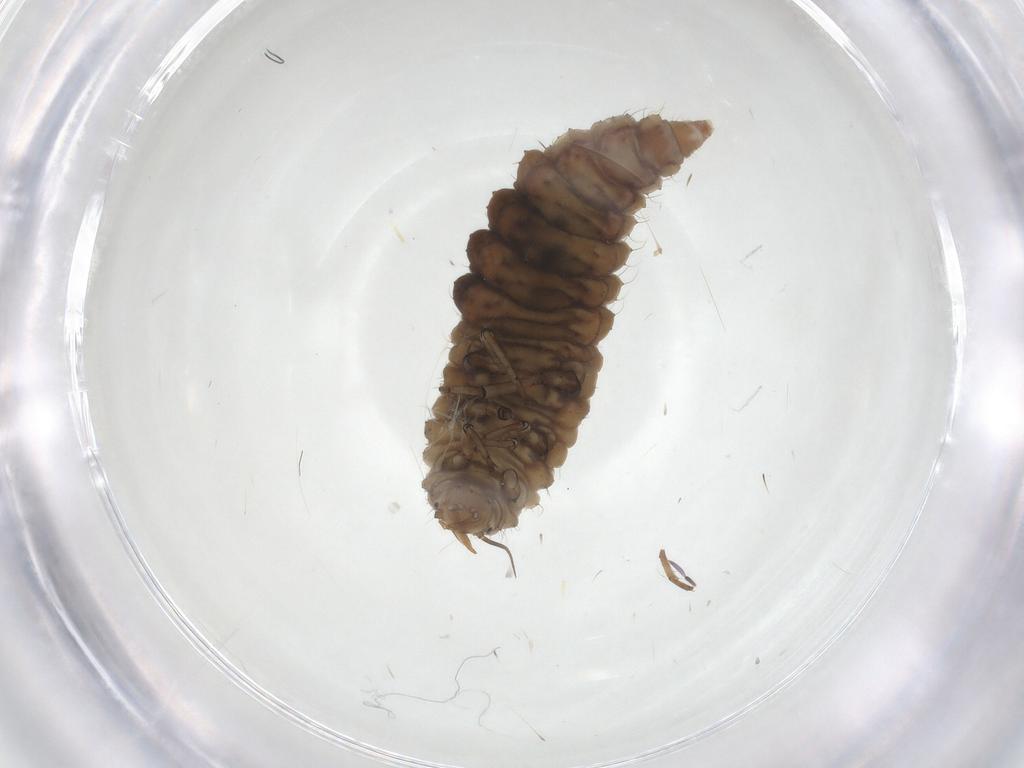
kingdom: Animalia
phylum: Arthropoda
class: Insecta
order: Neuroptera
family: Hemerobiidae
